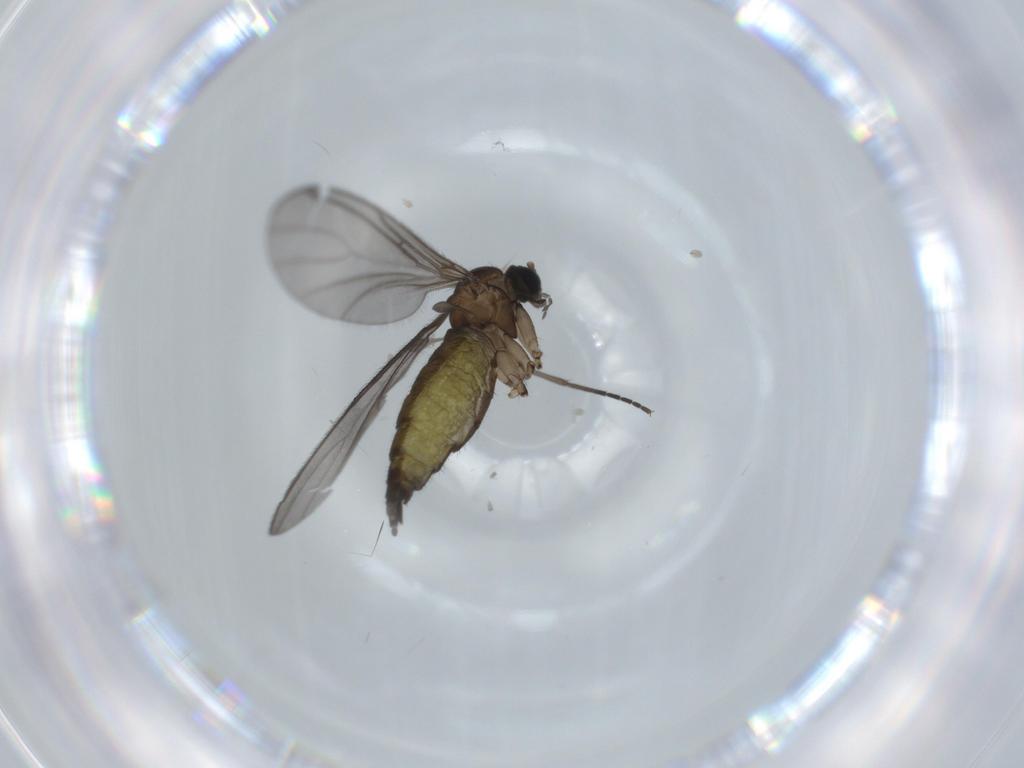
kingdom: Animalia
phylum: Arthropoda
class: Insecta
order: Diptera
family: Sciaridae
